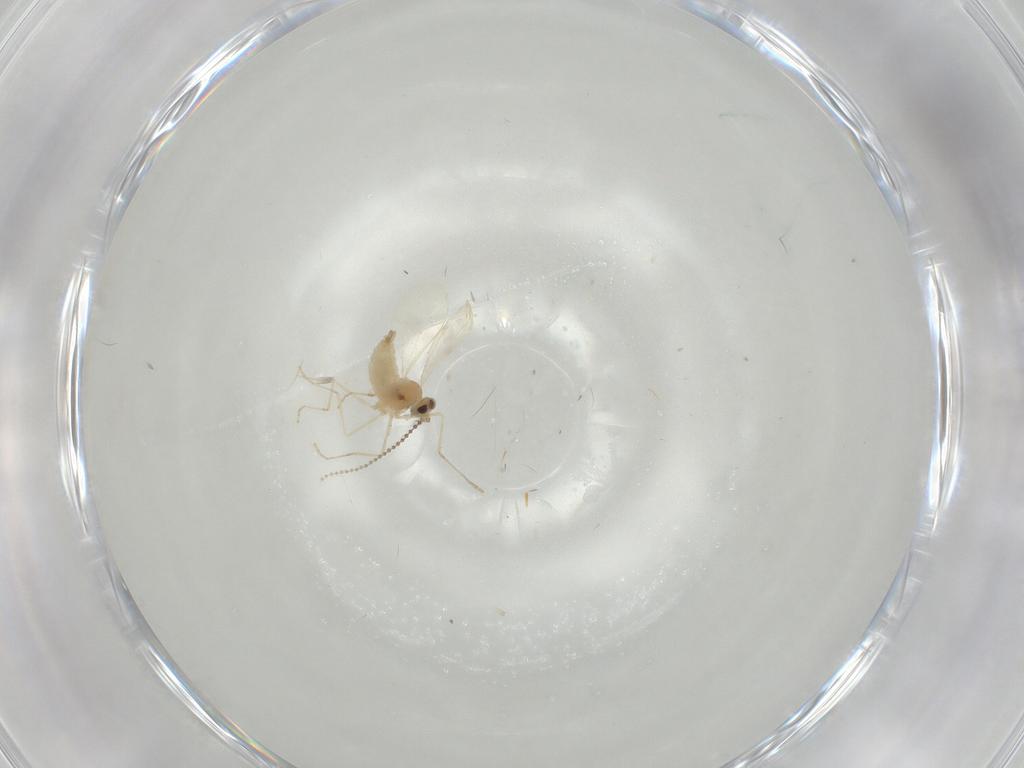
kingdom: Animalia
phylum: Arthropoda
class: Insecta
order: Diptera
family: Cecidomyiidae
